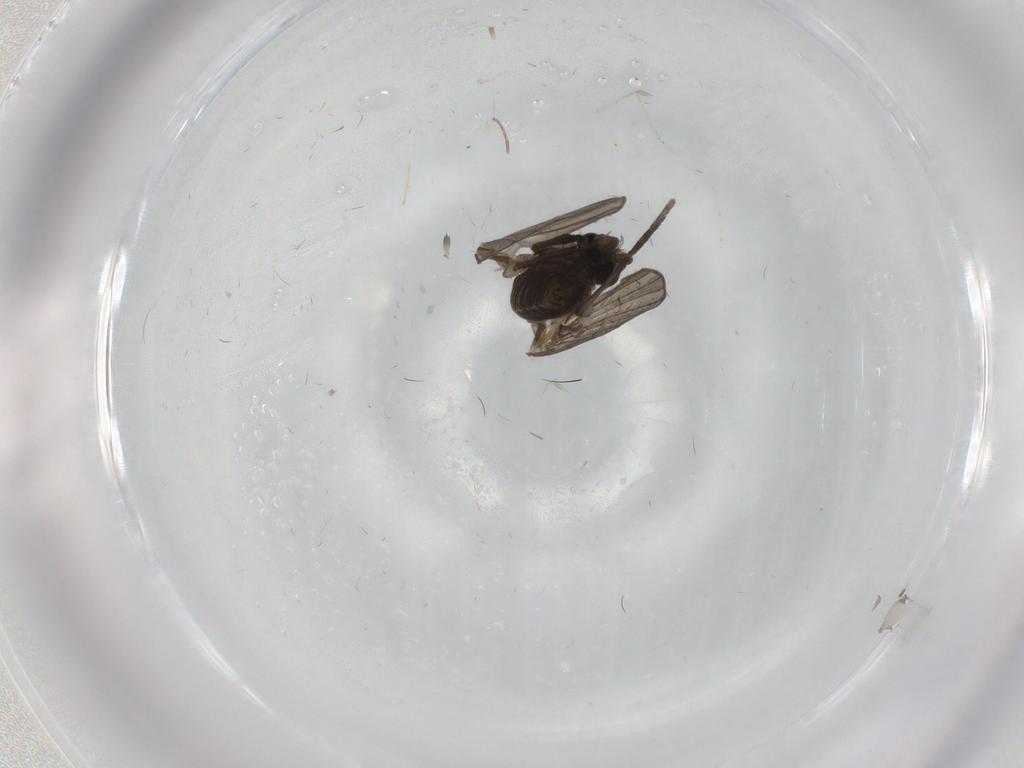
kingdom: Animalia
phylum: Arthropoda
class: Insecta
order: Diptera
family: Psychodidae
